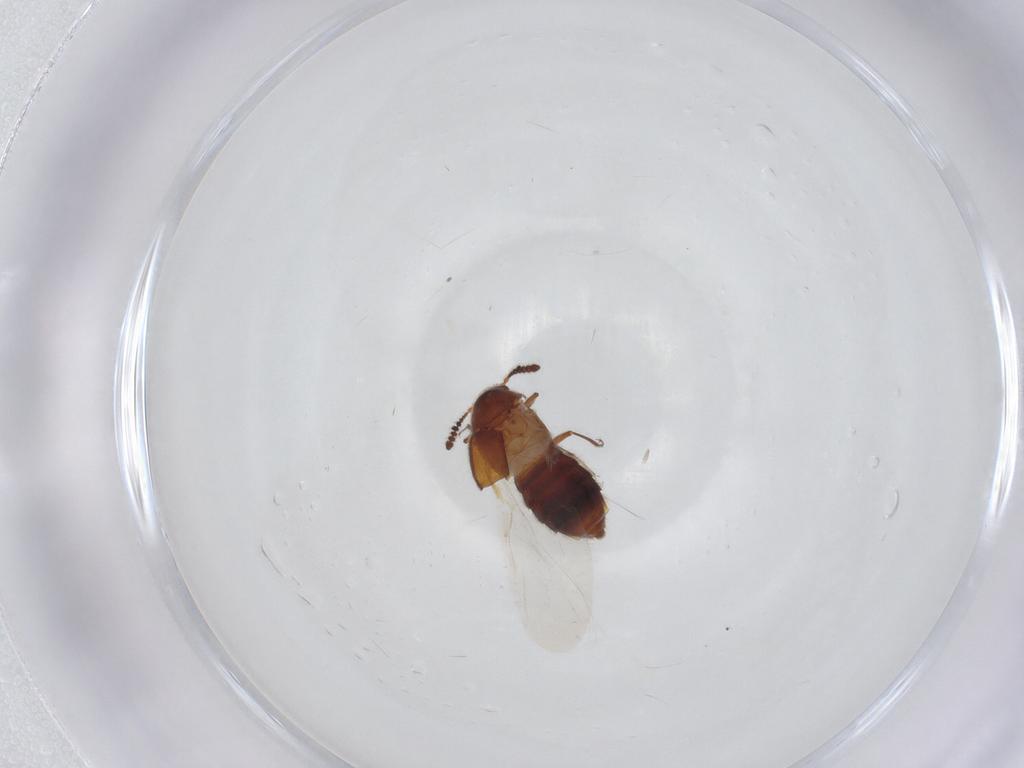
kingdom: Animalia
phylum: Arthropoda
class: Insecta
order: Coleoptera
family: Staphylinidae
